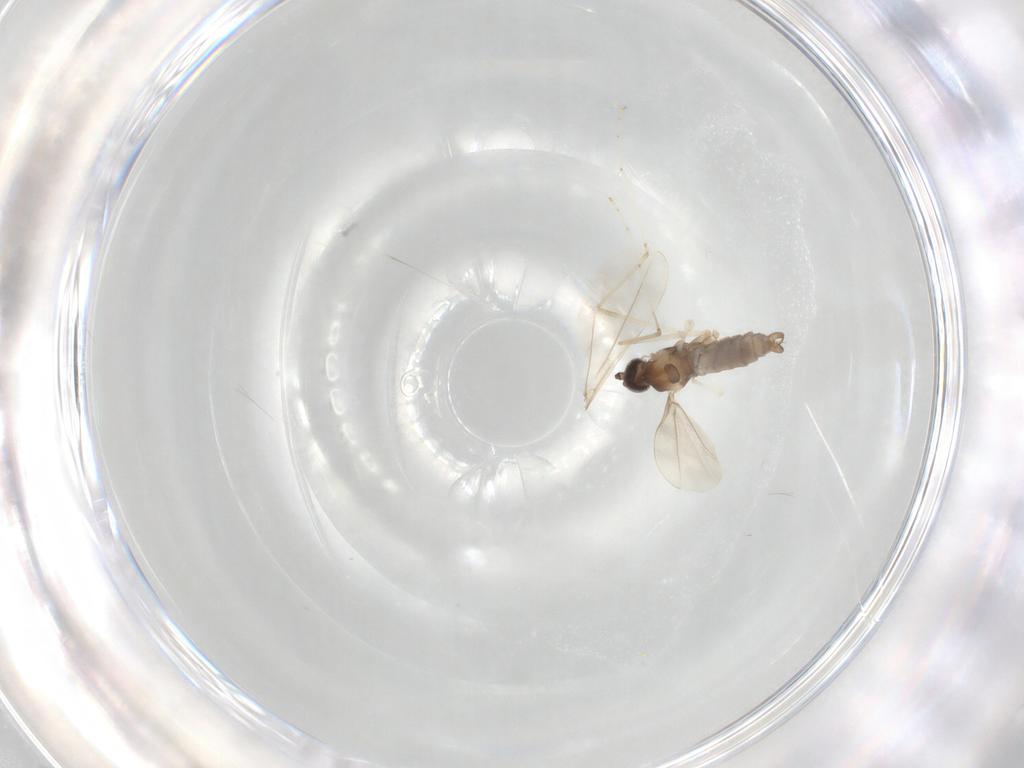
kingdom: Animalia
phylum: Arthropoda
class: Insecta
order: Diptera
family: Cecidomyiidae
